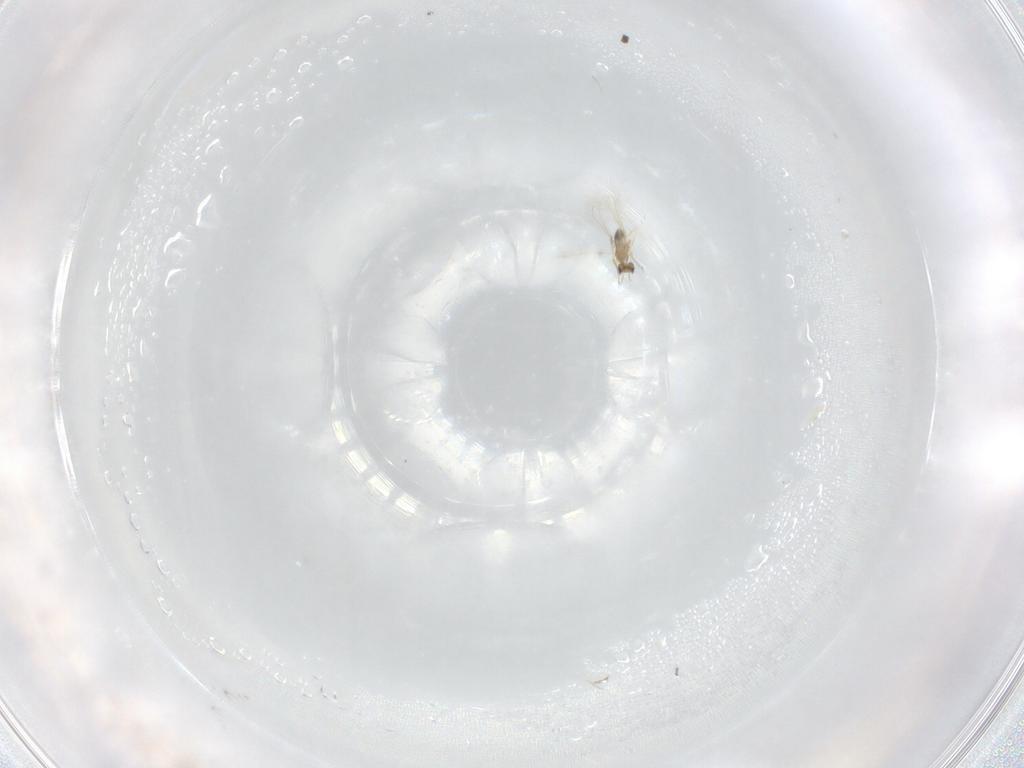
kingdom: Animalia
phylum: Arthropoda
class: Insecta
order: Hymenoptera
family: Mymaridae
